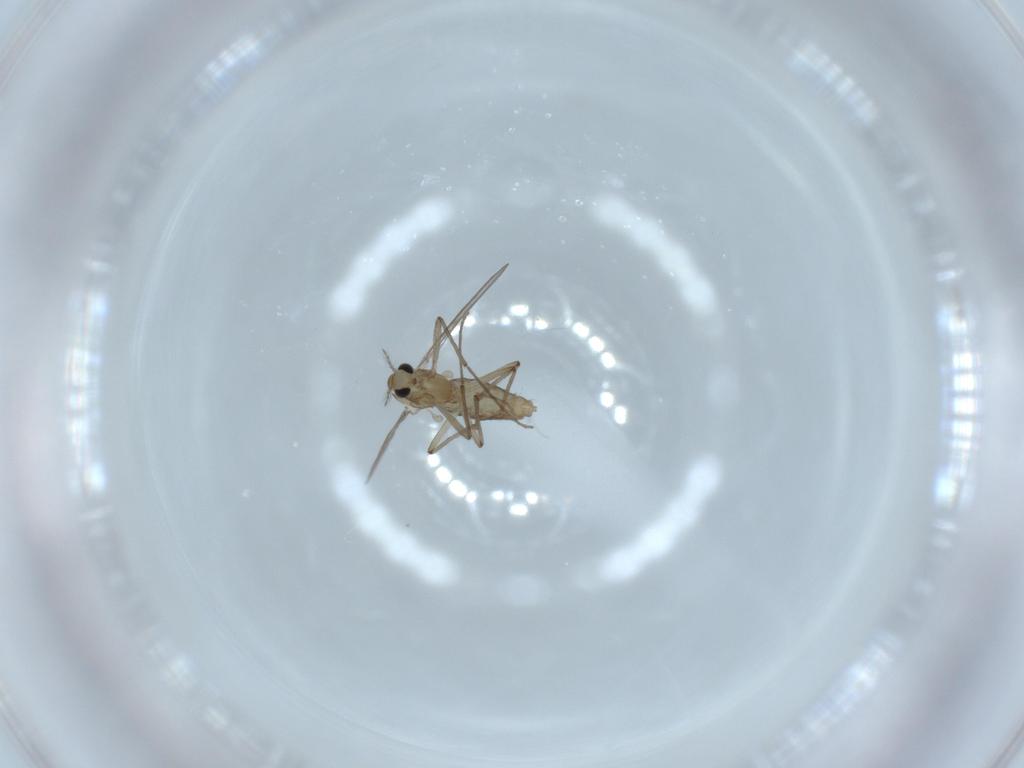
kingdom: Animalia
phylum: Arthropoda
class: Insecta
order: Diptera
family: Chironomidae
